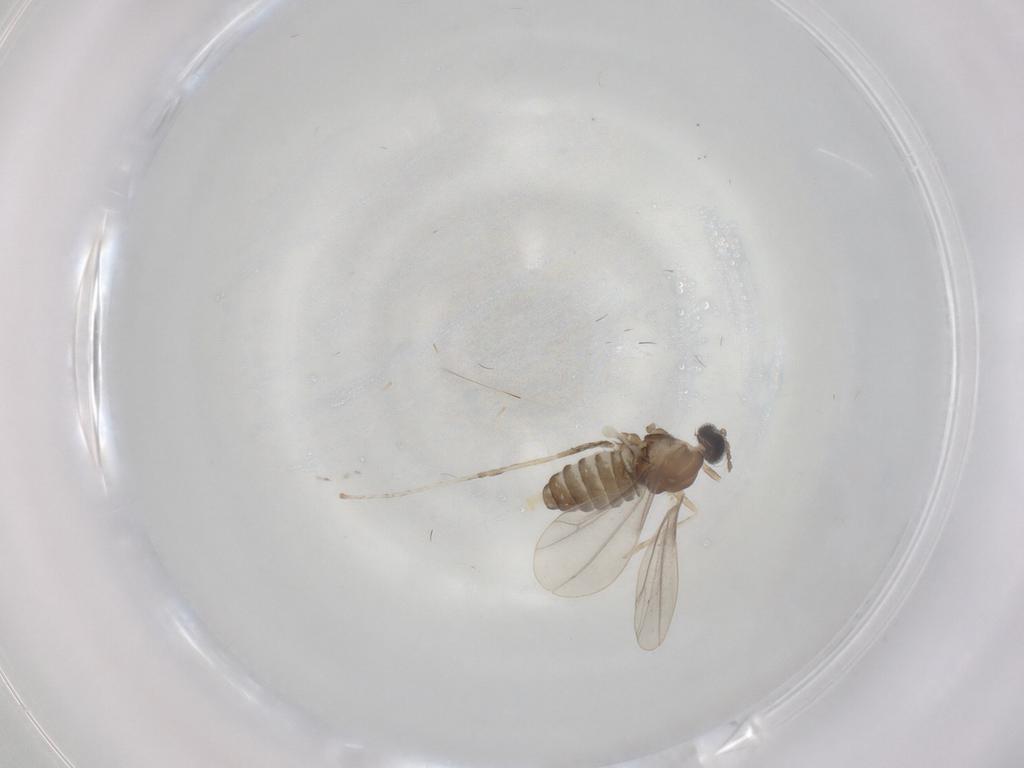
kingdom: Animalia
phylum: Arthropoda
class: Insecta
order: Diptera
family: Cecidomyiidae
